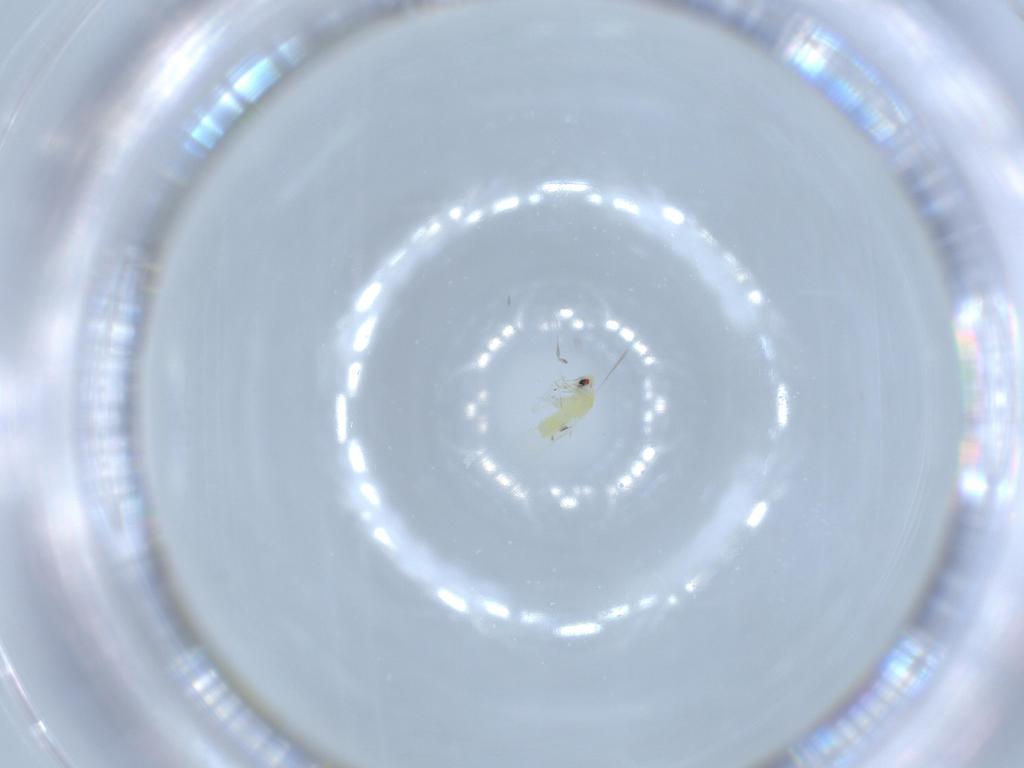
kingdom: Animalia
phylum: Arthropoda
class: Insecta
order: Hemiptera
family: Aleyrodidae
